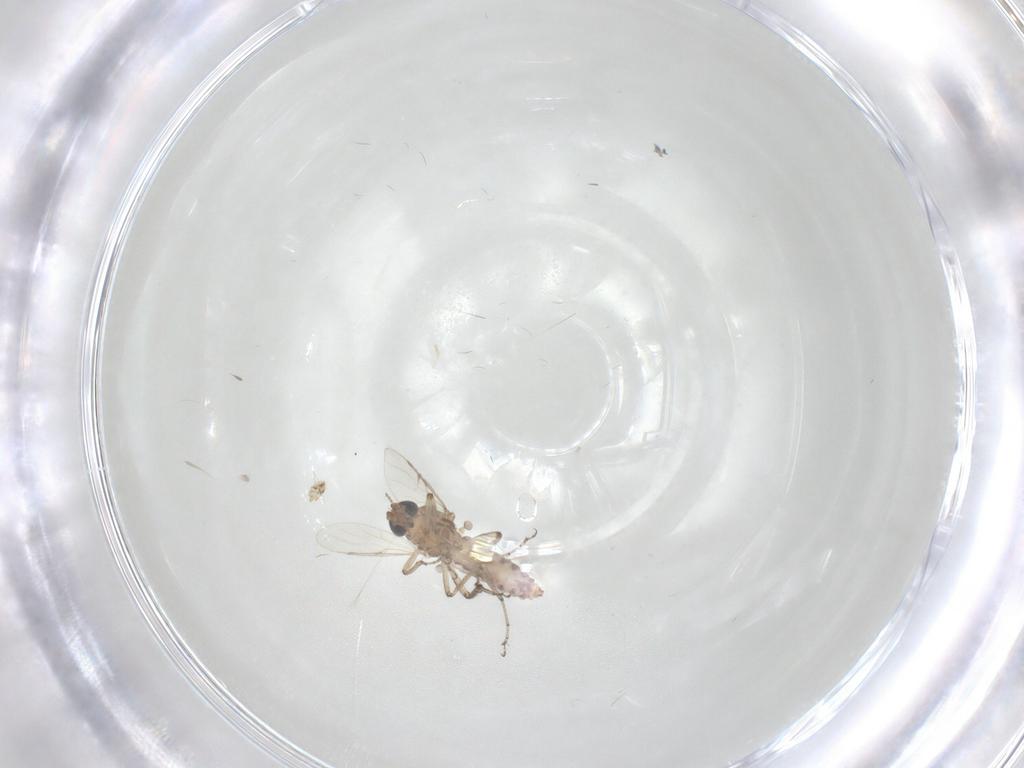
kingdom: Animalia
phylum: Arthropoda
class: Insecta
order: Diptera
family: Ceratopogonidae
